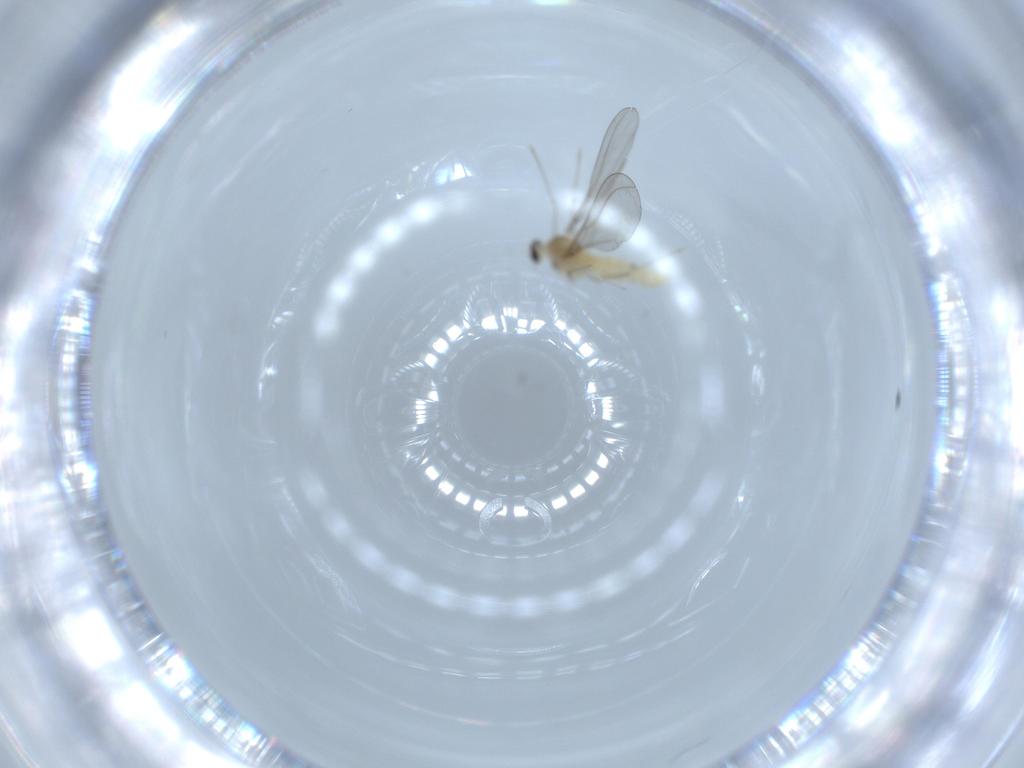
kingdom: Animalia
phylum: Arthropoda
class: Insecta
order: Diptera
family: Cecidomyiidae
